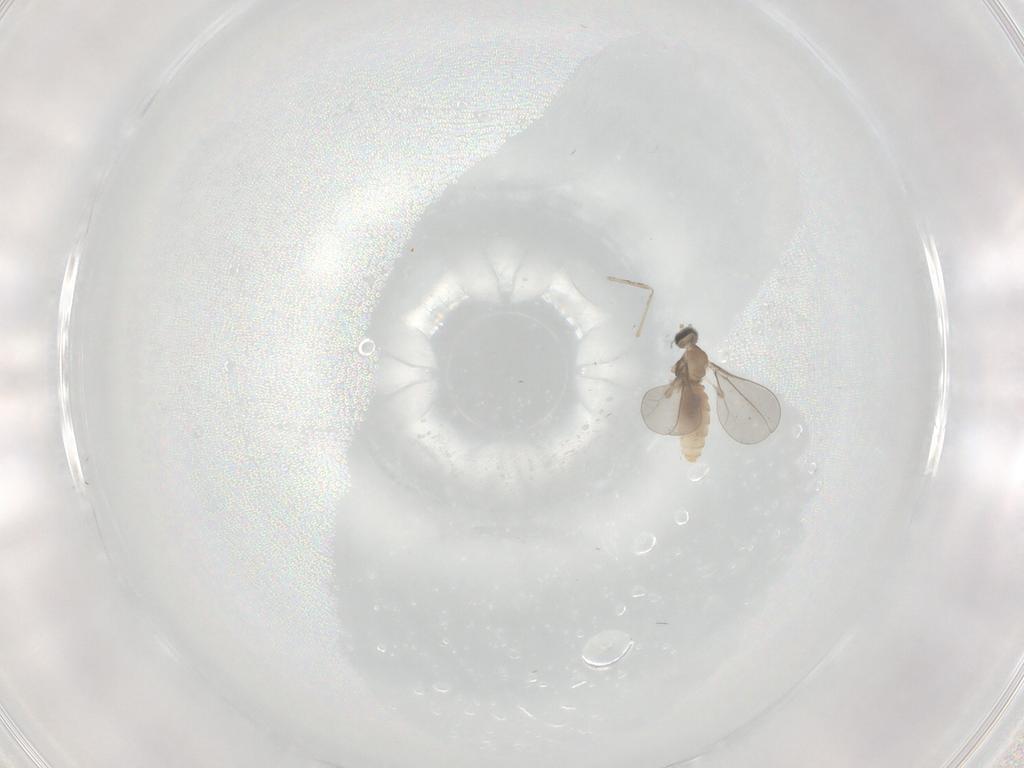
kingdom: Animalia
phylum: Arthropoda
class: Insecta
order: Diptera
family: Cecidomyiidae
